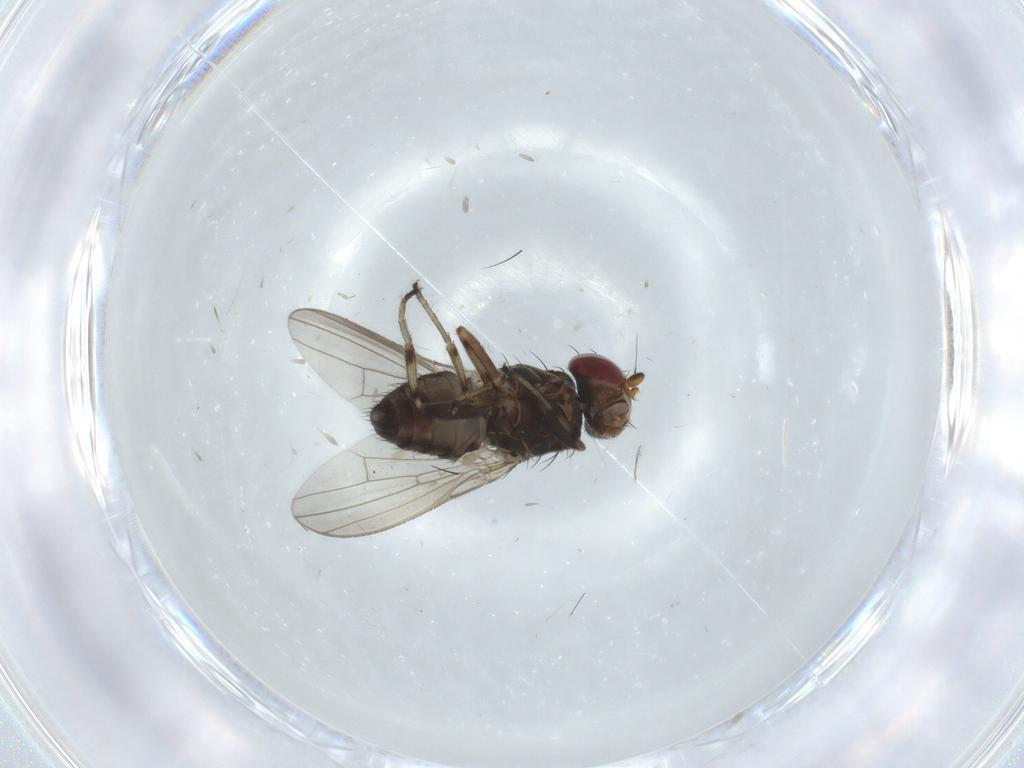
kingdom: Animalia
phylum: Arthropoda
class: Insecta
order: Diptera
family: Heleomyzidae
